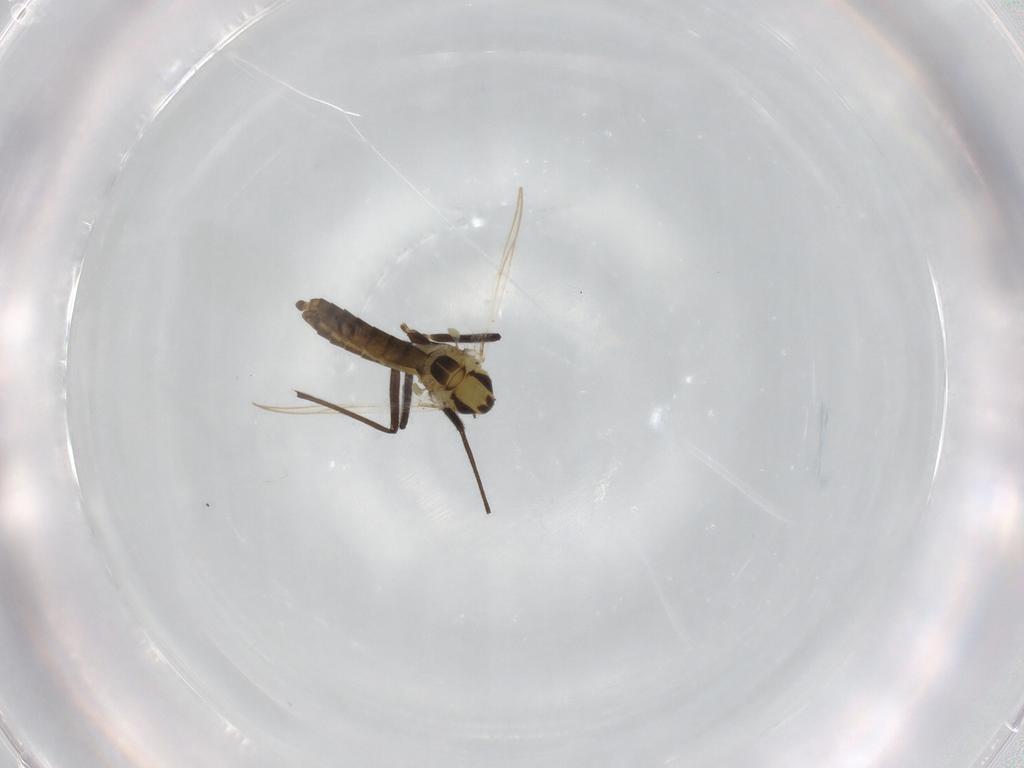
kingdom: Animalia
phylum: Arthropoda
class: Insecta
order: Diptera
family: Chironomidae
